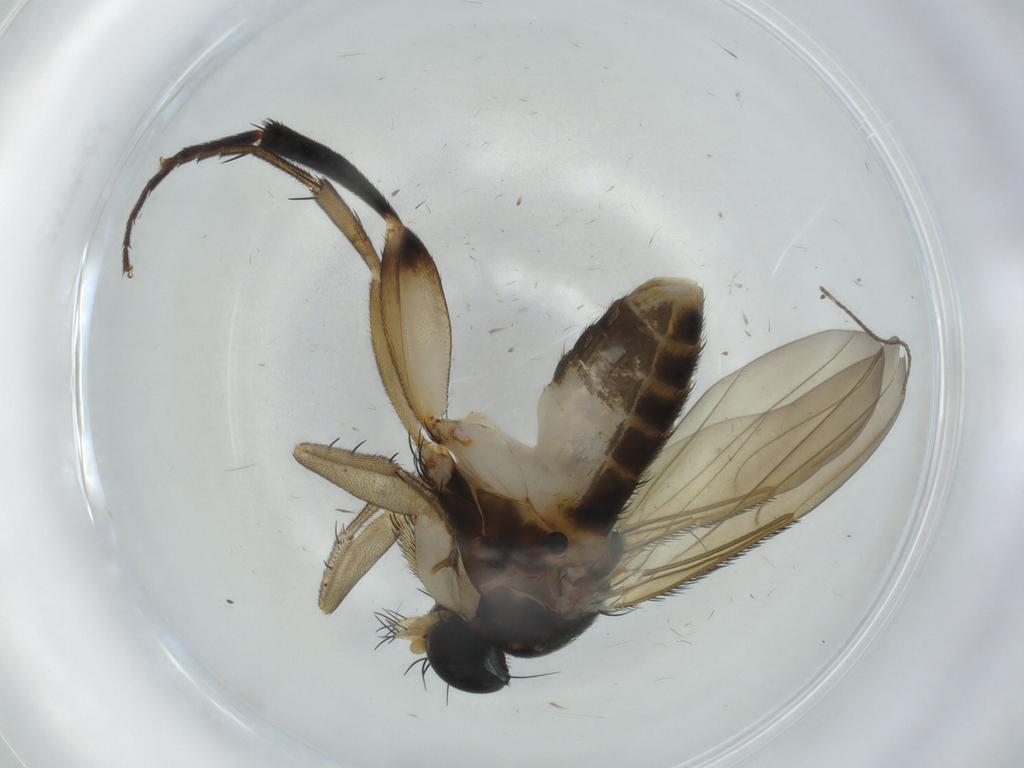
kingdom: Animalia
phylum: Arthropoda
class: Insecta
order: Diptera
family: Phoridae
